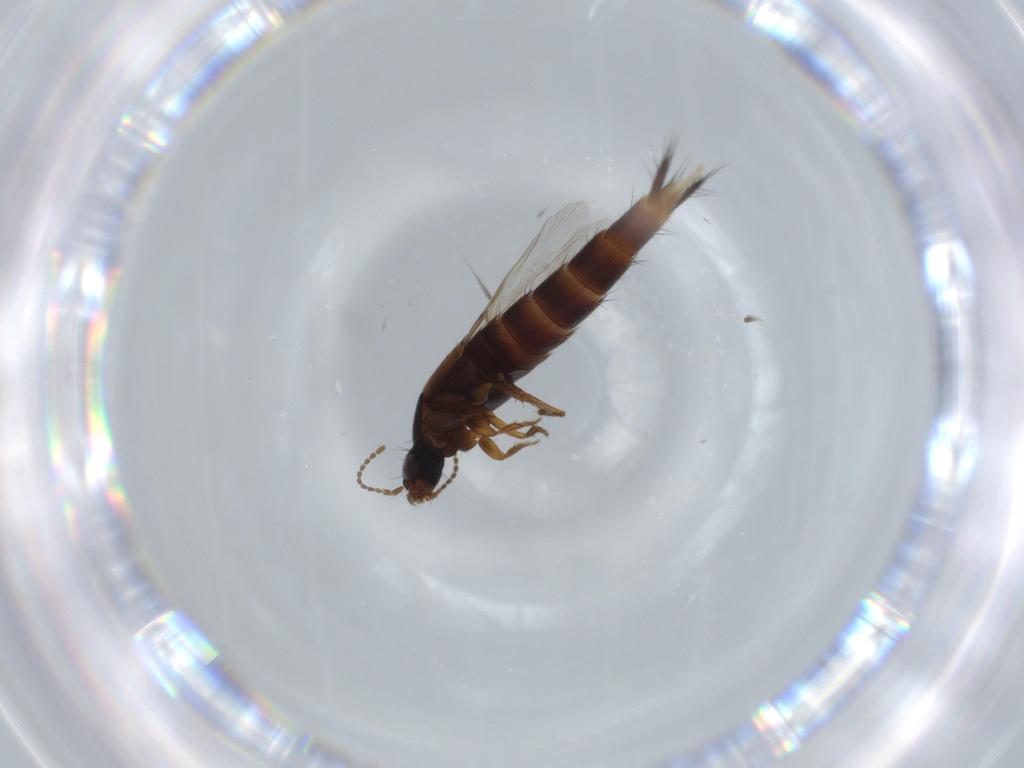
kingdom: Animalia
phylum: Arthropoda
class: Insecta
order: Coleoptera
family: Staphylinidae
